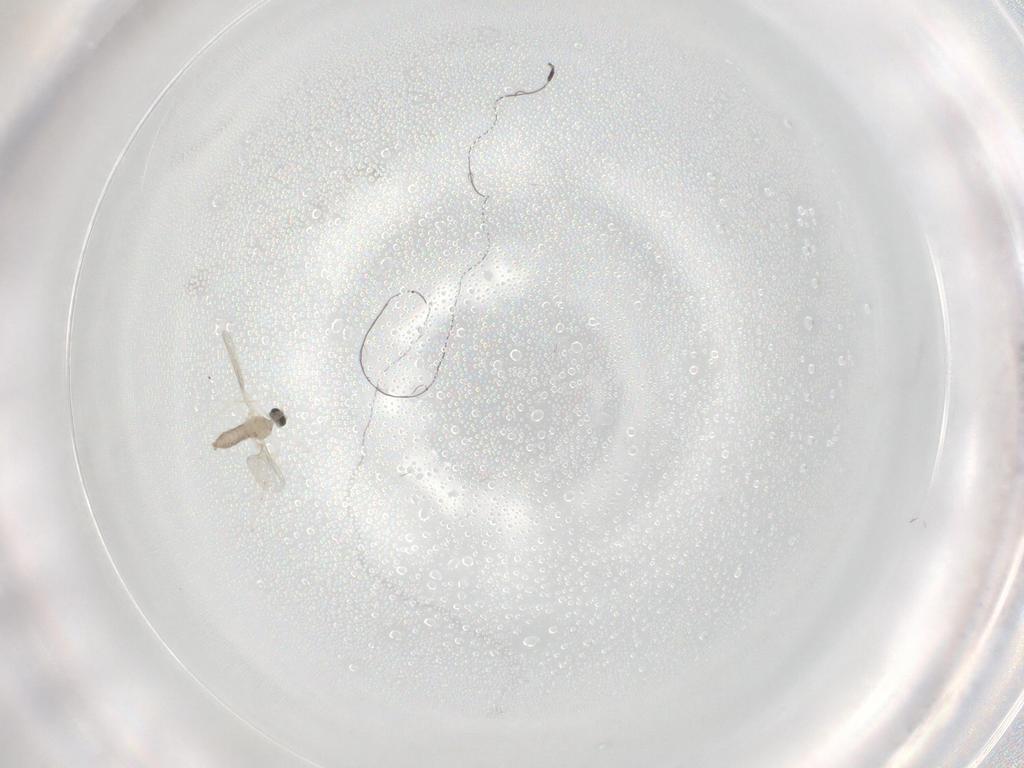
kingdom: Animalia
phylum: Arthropoda
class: Insecta
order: Diptera
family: Cecidomyiidae
